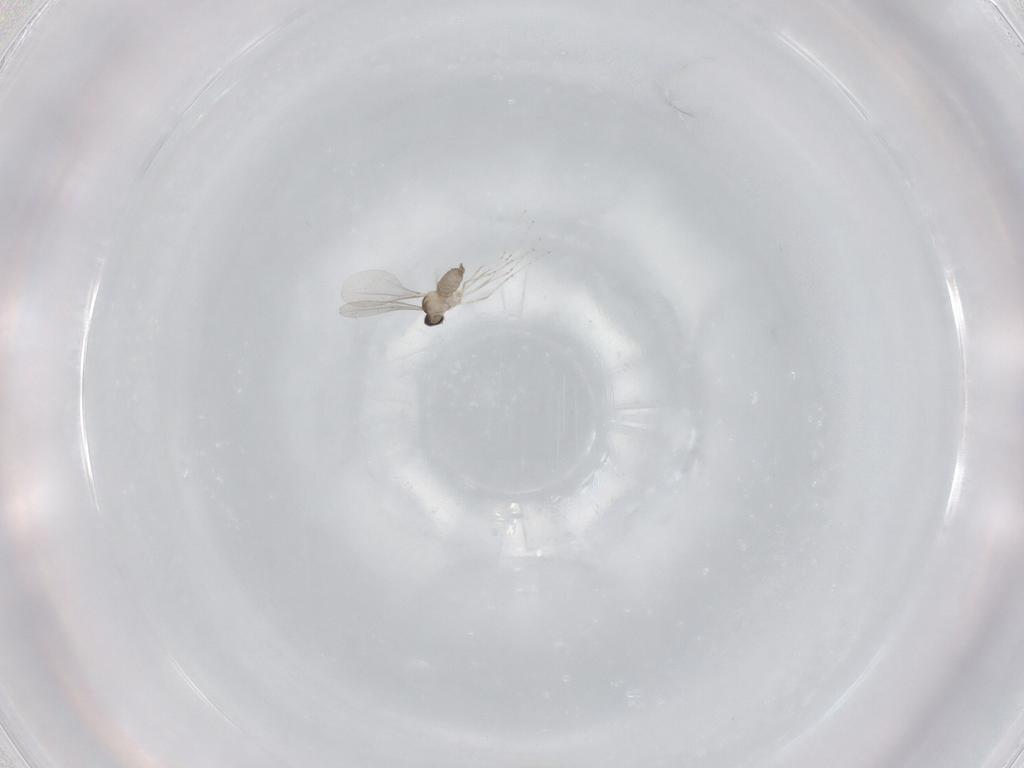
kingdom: Animalia
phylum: Arthropoda
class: Insecta
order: Diptera
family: Cecidomyiidae
